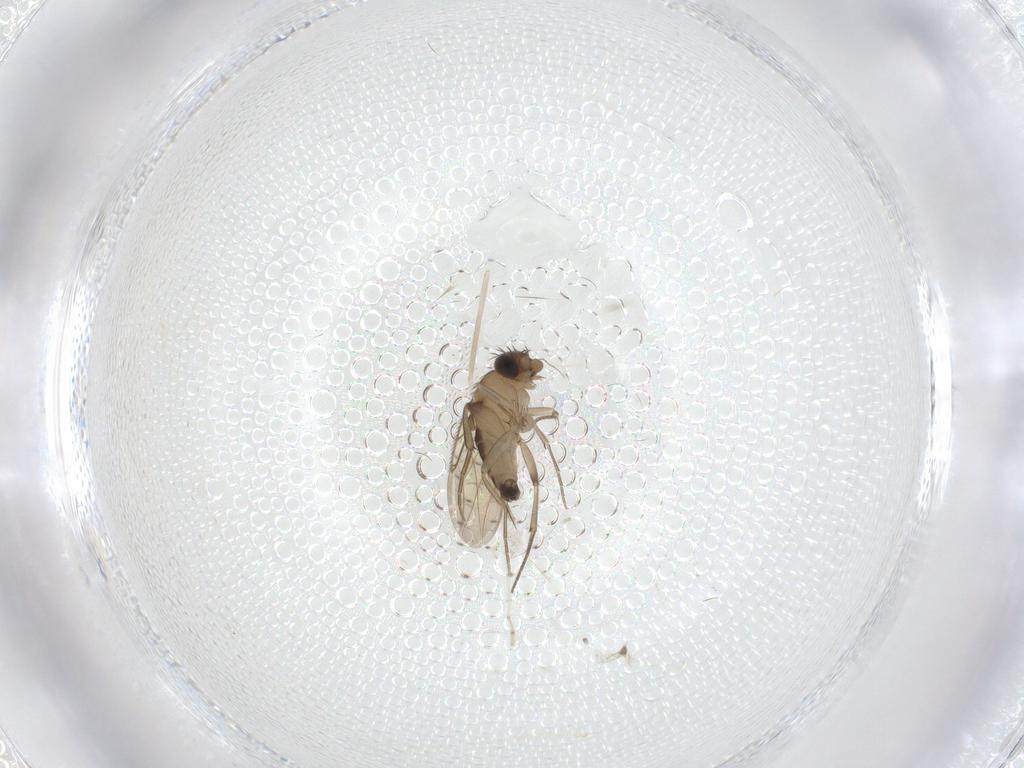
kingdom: Animalia
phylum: Arthropoda
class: Insecta
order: Diptera
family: Phoridae
